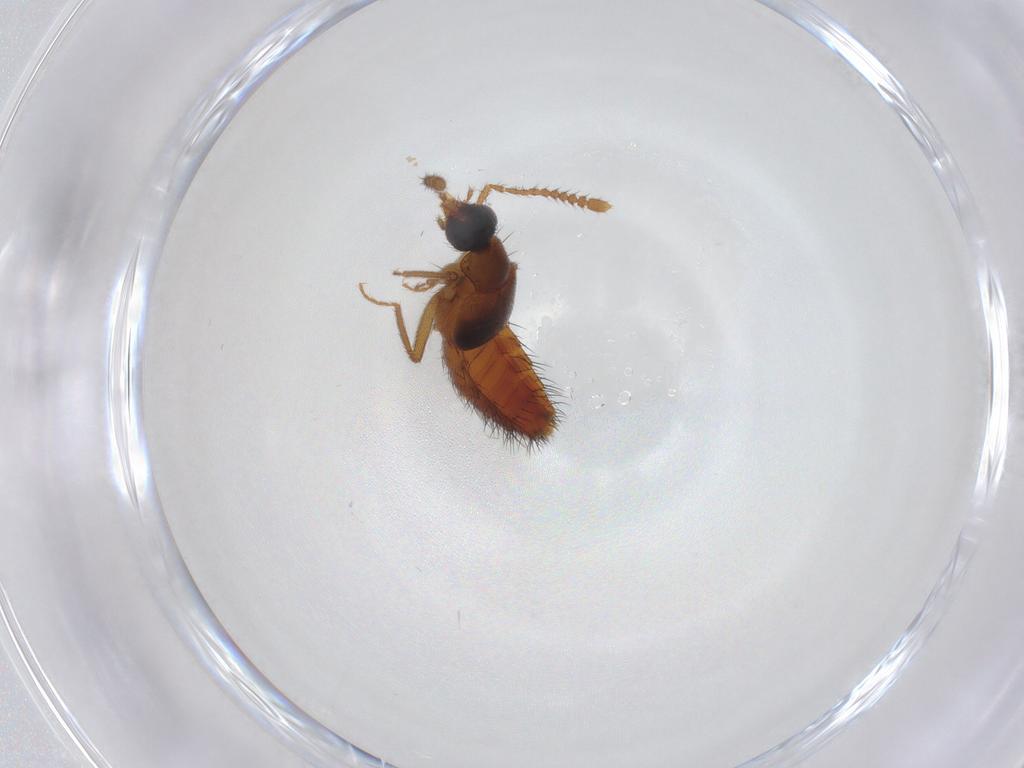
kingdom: Animalia
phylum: Arthropoda
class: Insecta
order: Coleoptera
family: Staphylinidae
